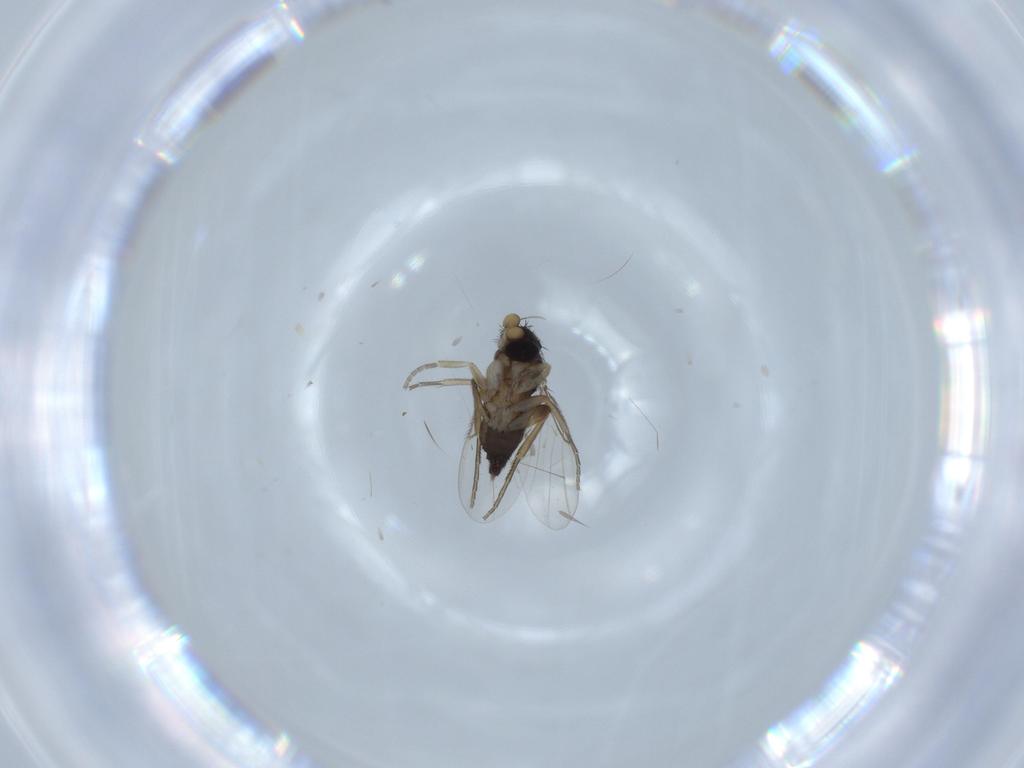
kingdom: Animalia
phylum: Arthropoda
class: Insecta
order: Diptera
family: Phoridae
